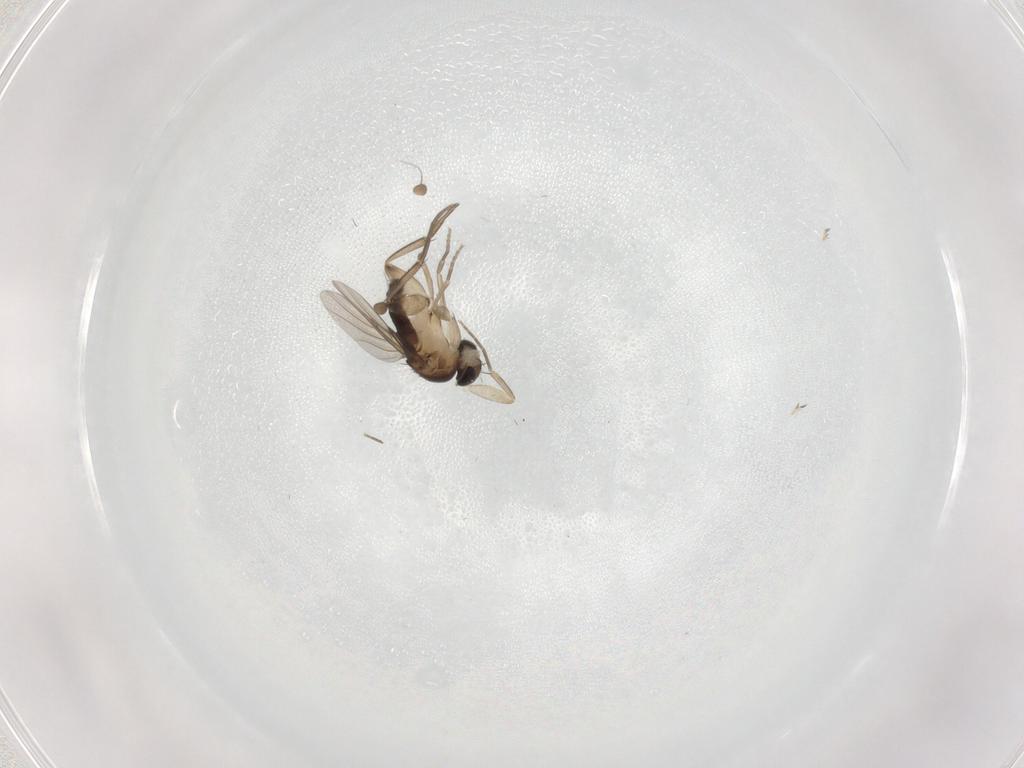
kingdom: Animalia
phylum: Arthropoda
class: Insecta
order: Diptera
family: Phoridae
